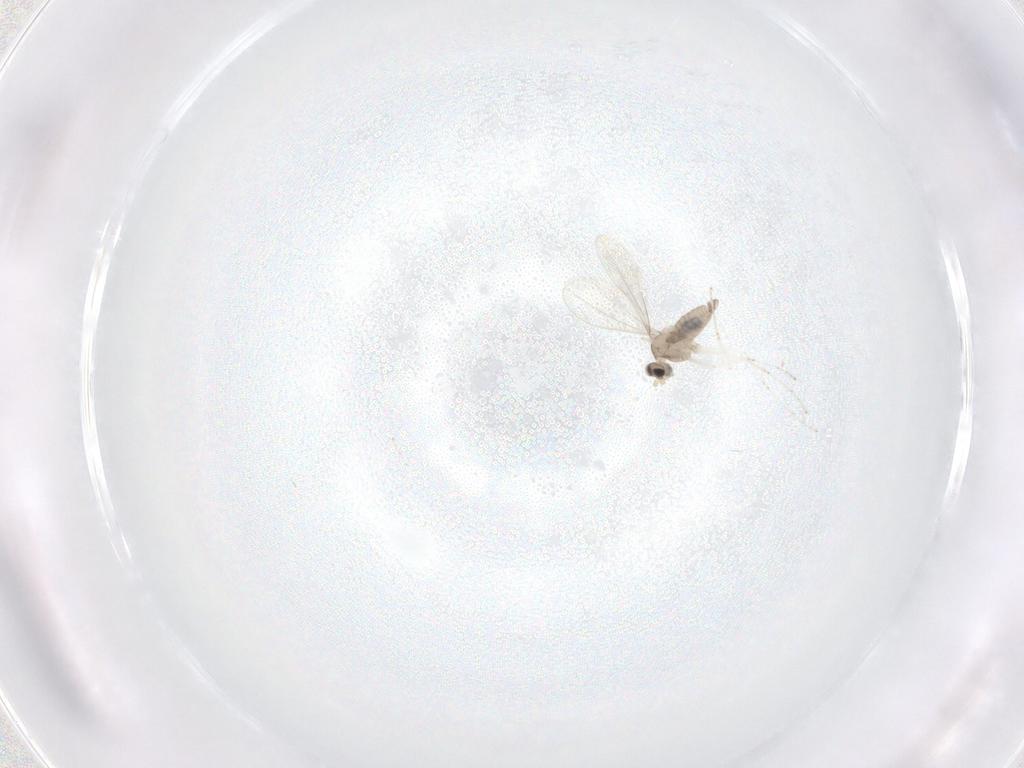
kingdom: Animalia
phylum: Arthropoda
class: Insecta
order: Diptera
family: Cecidomyiidae
